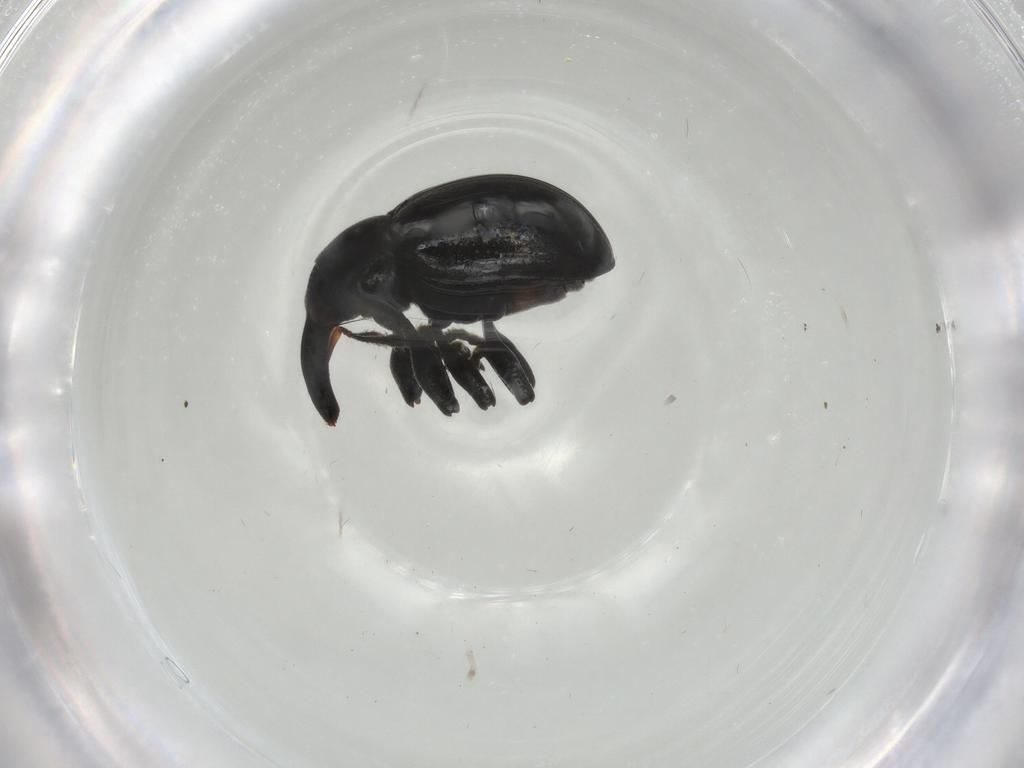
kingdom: Animalia
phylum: Arthropoda
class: Insecta
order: Coleoptera
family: Curculionidae
